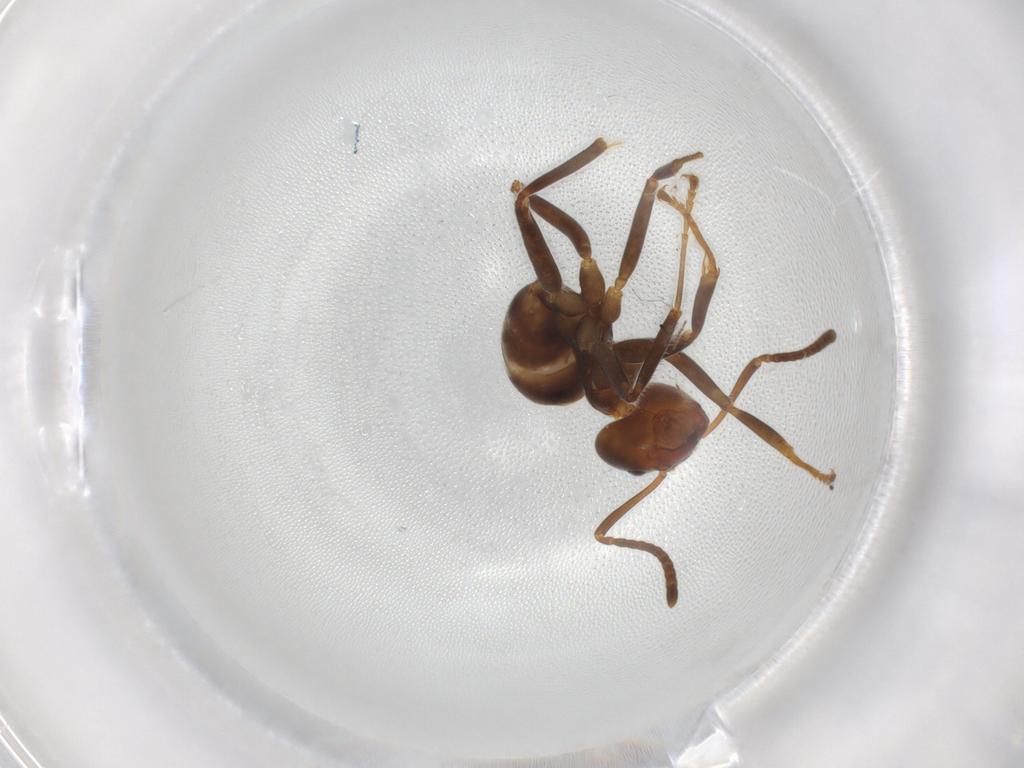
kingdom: Animalia
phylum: Arthropoda
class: Insecta
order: Hymenoptera
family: Formicidae
